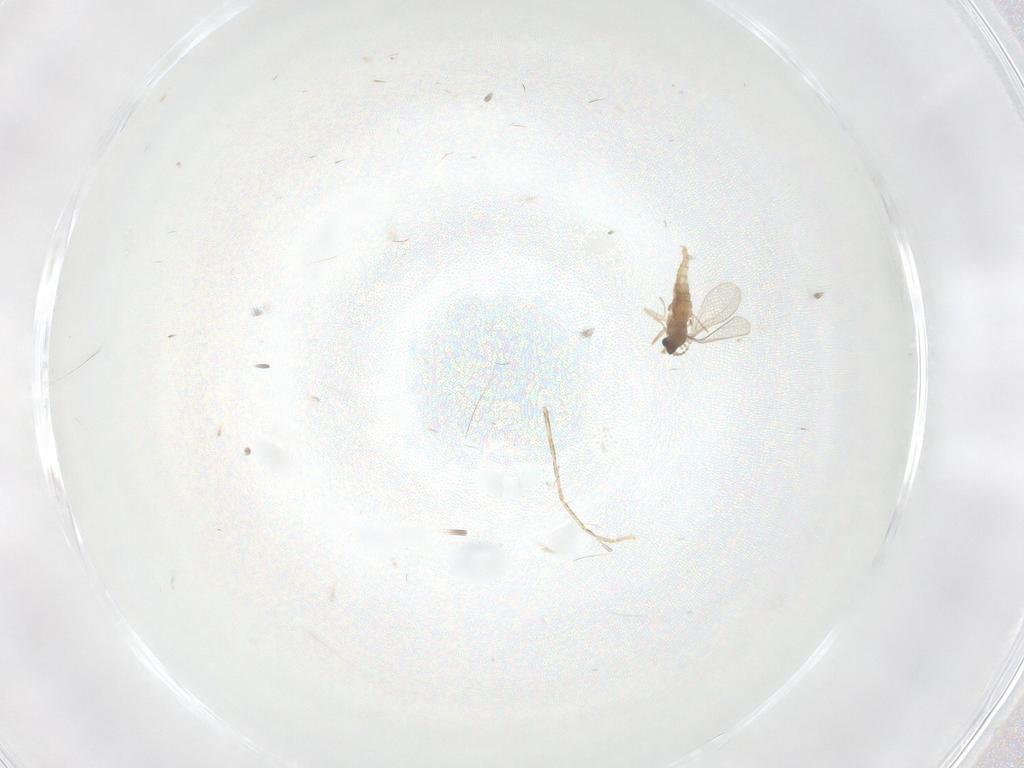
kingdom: Animalia
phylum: Arthropoda
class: Insecta
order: Diptera
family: Cecidomyiidae
